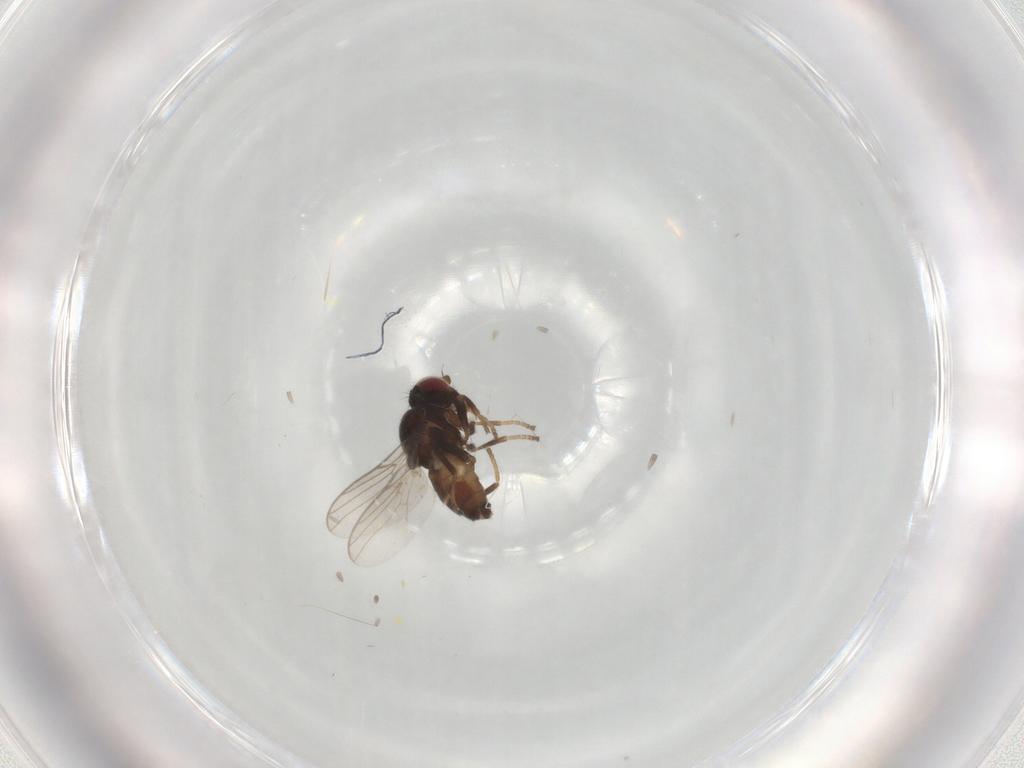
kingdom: Animalia
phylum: Arthropoda
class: Insecta
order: Diptera
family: Chloropidae
